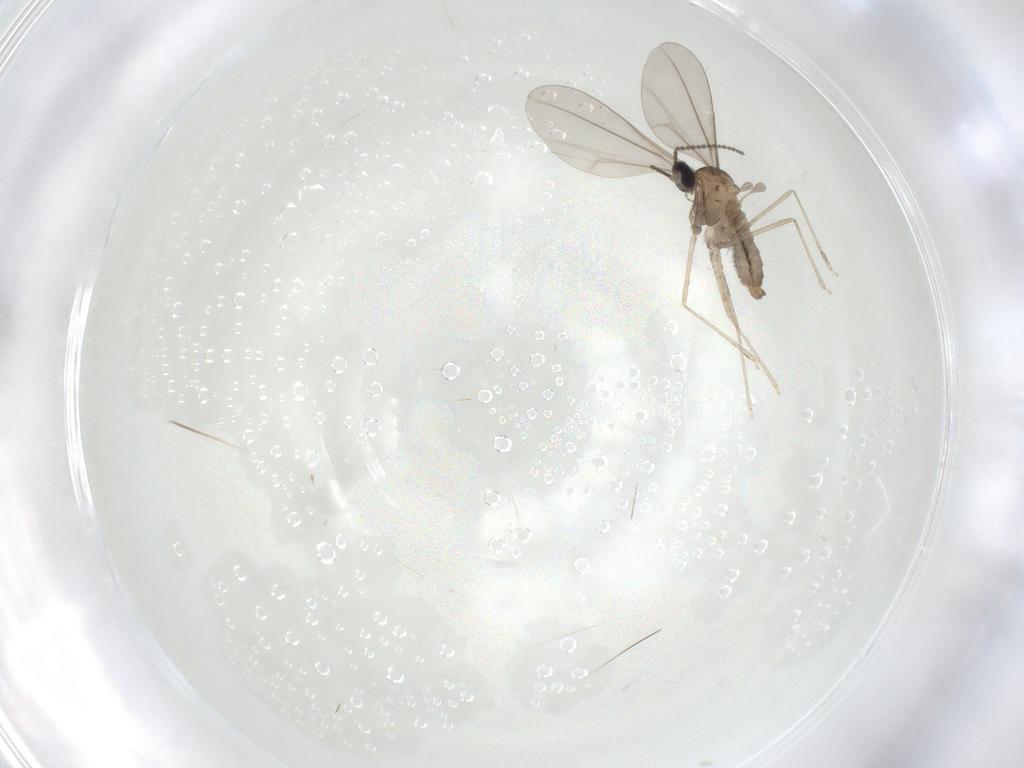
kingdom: Animalia
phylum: Arthropoda
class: Insecta
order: Diptera
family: Cecidomyiidae
